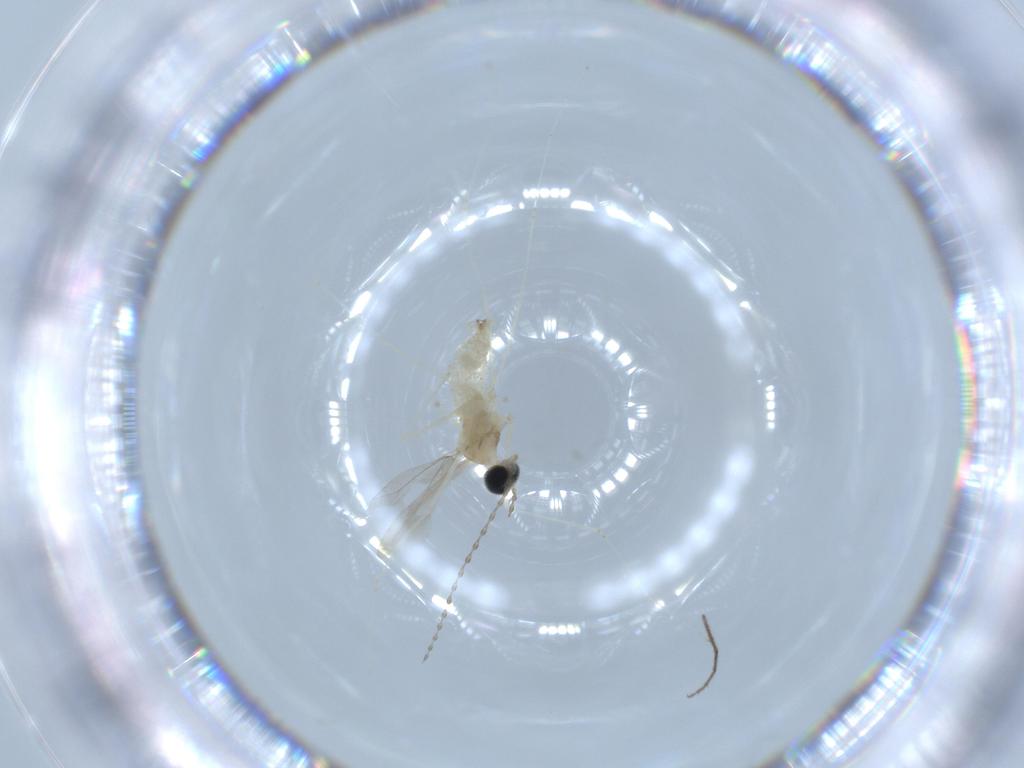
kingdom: Animalia
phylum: Arthropoda
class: Insecta
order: Diptera
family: Cecidomyiidae
